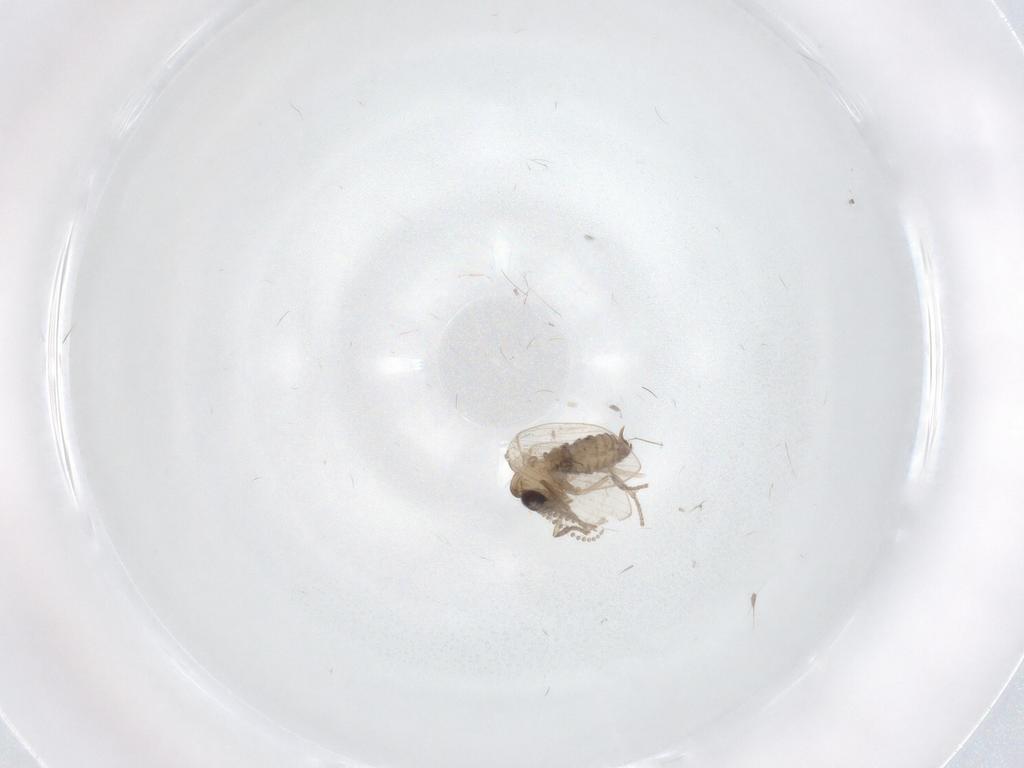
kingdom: Animalia
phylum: Arthropoda
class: Insecta
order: Diptera
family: Psychodidae
